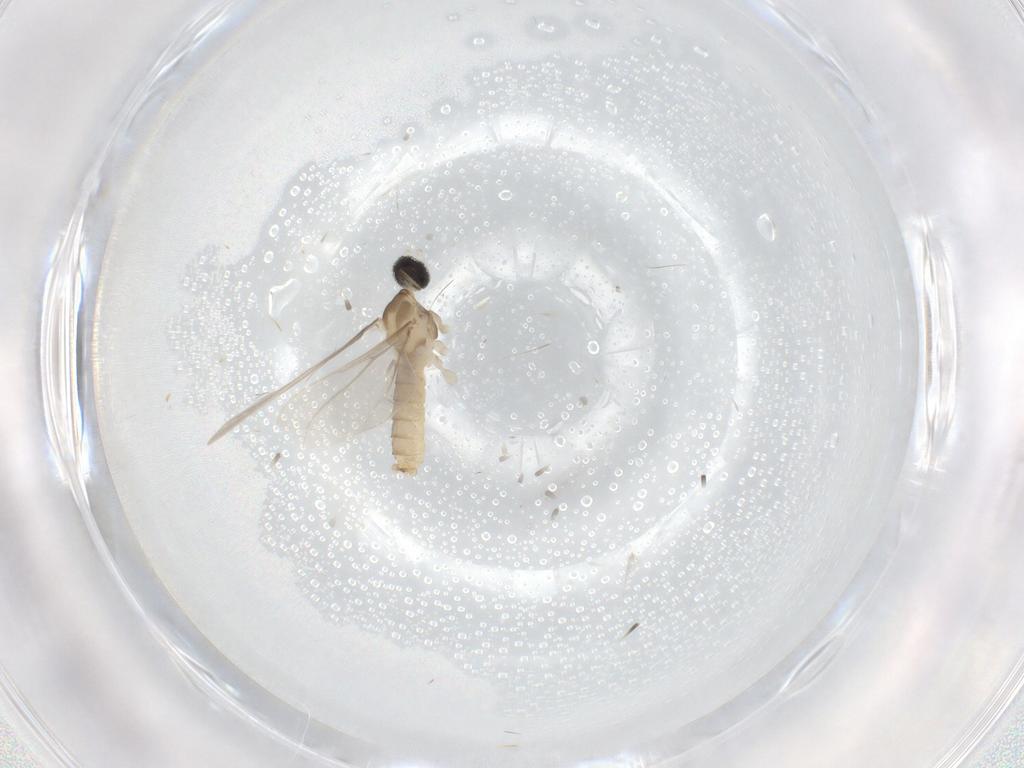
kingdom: Animalia
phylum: Arthropoda
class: Insecta
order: Diptera
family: Cecidomyiidae
